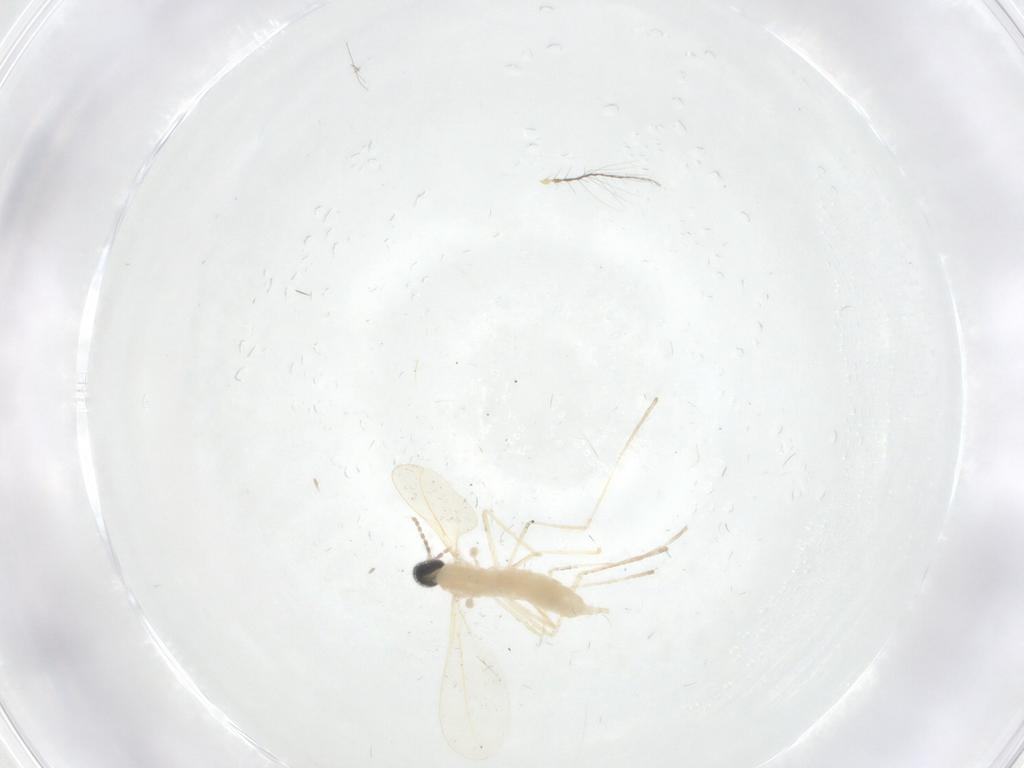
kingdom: Animalia
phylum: Arthropoda
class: Insecta
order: Diptera
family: Cecidomyiidae
